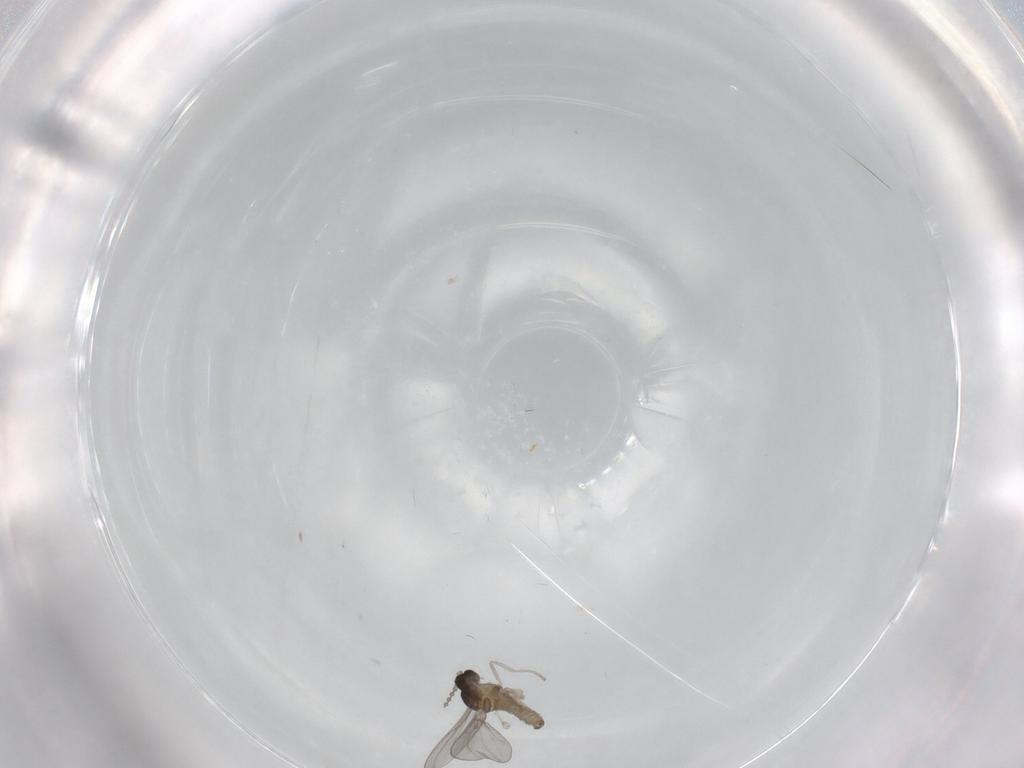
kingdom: Animalia
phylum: Arthropoda
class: Insecta
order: Diptera
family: Cecidomyiidae
